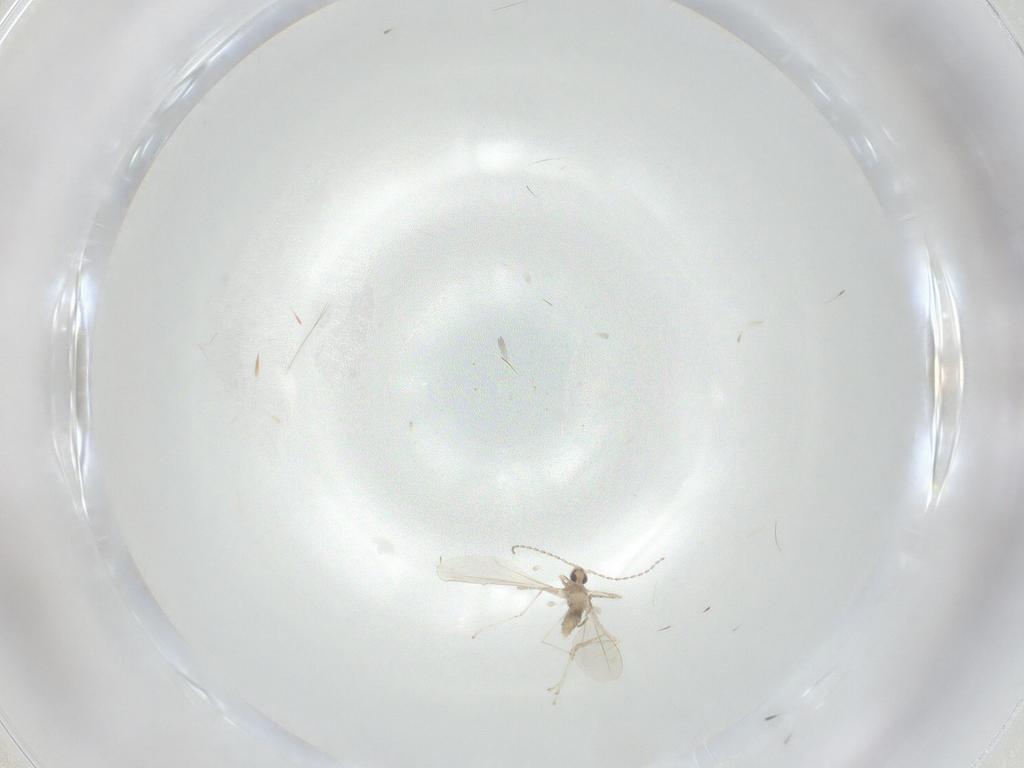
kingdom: Animalia
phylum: Arthropoda
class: Insecta
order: Diptera
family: Cecidomyiidae
